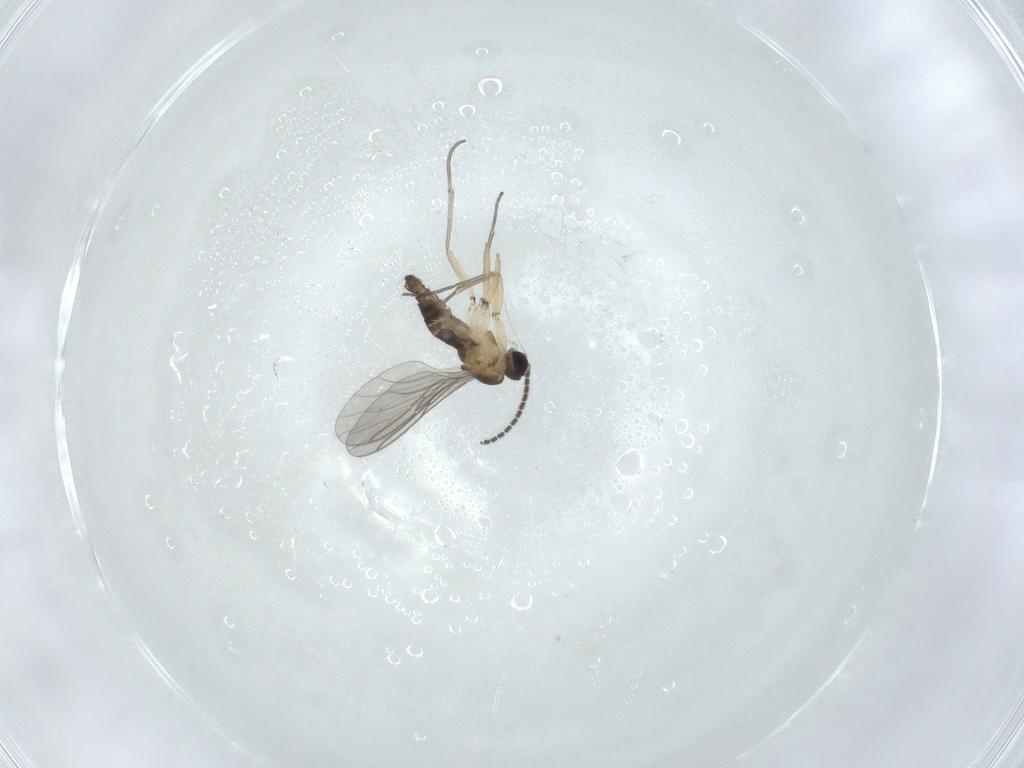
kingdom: Animalia
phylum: Arthropoda
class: Insecta
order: Diptera
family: Sciaridae
